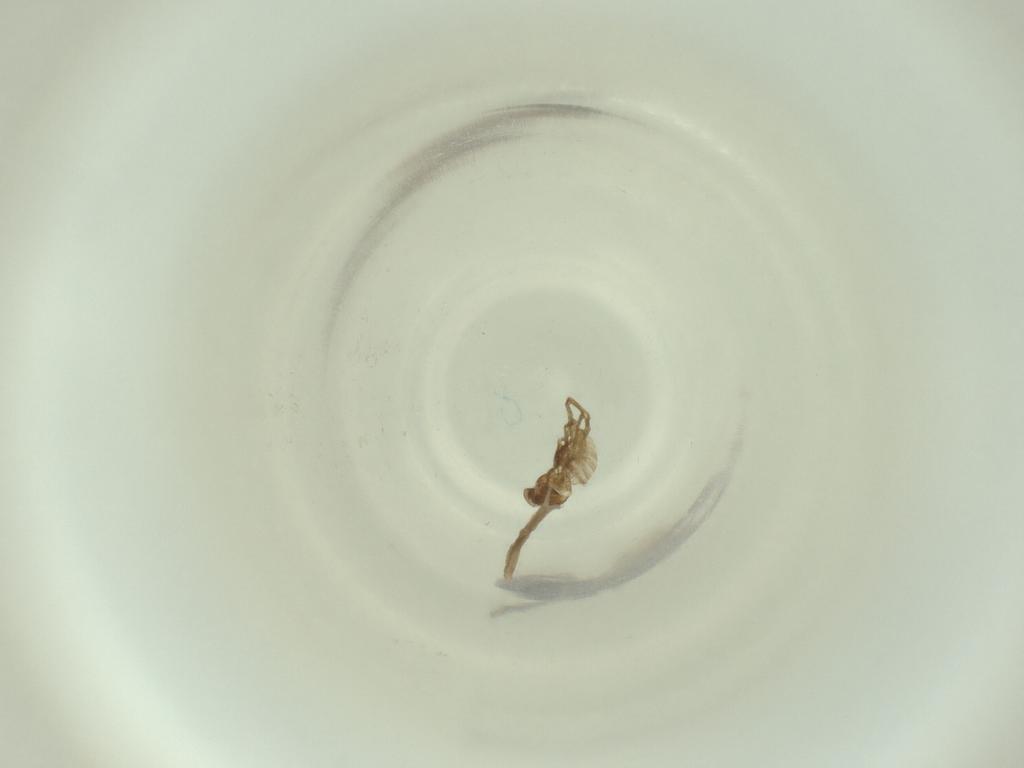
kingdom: Animalia
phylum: Arthropoda
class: Insecta
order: Diptera
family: Cecidomyiidae
